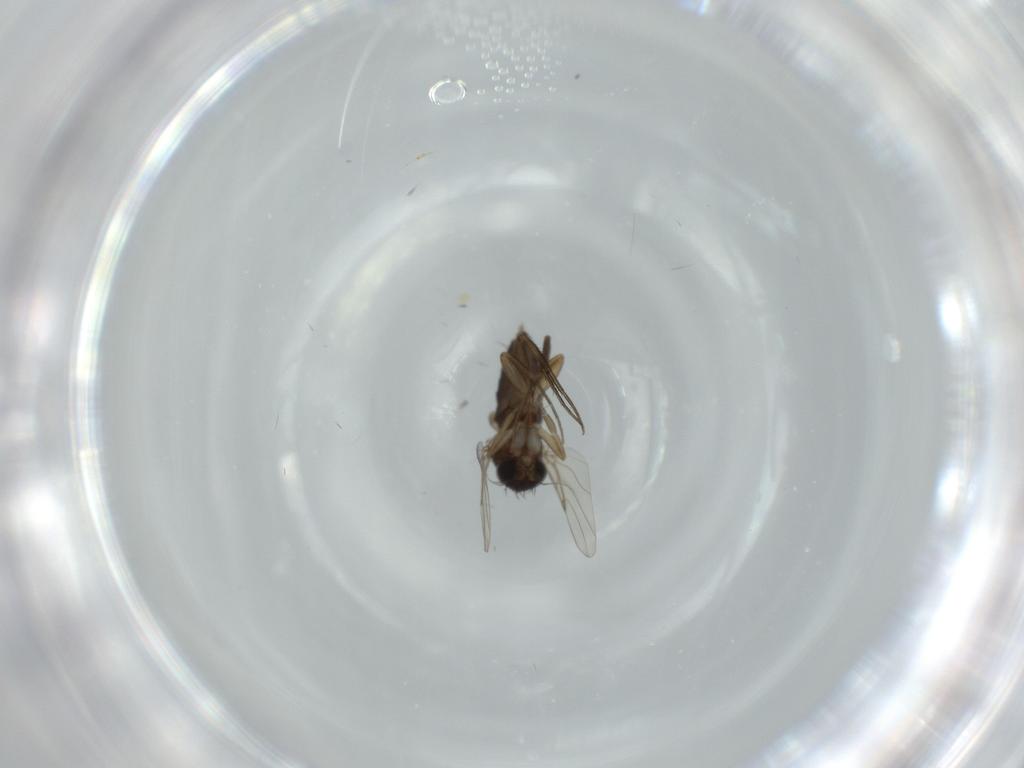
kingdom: Animalia
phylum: Arthropoda
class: Insecta
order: Diptera
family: Phoridae
